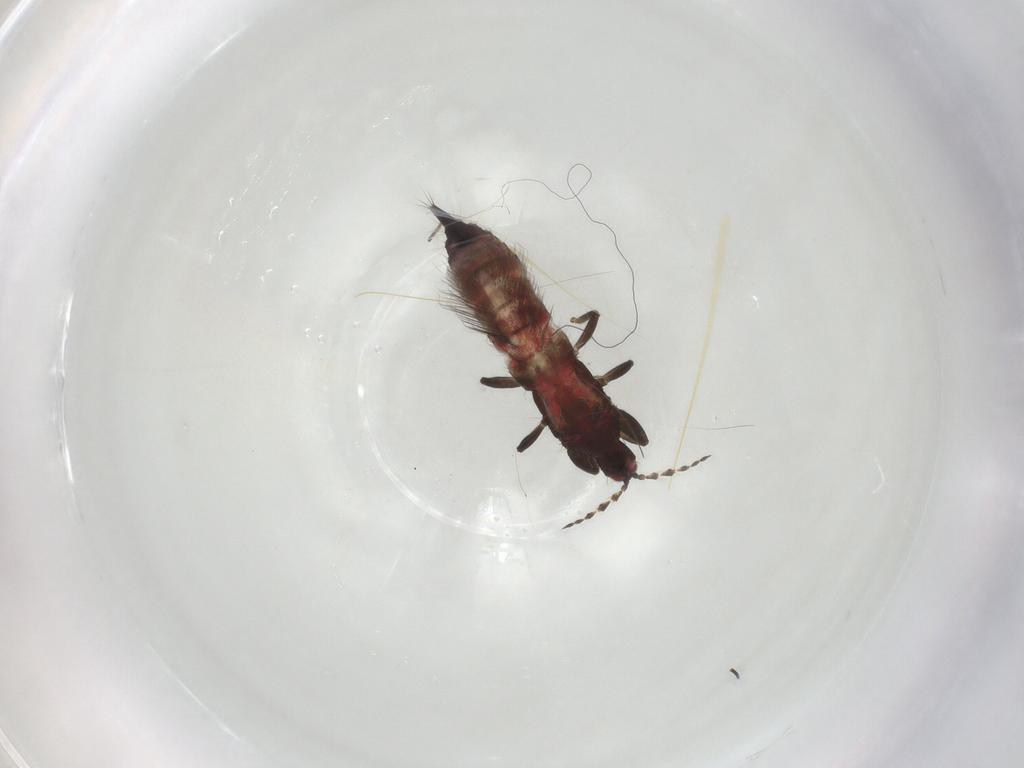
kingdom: Animalia
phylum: Arthropoda
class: Insecta
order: Thysanoptera
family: Phlaeothripidae
